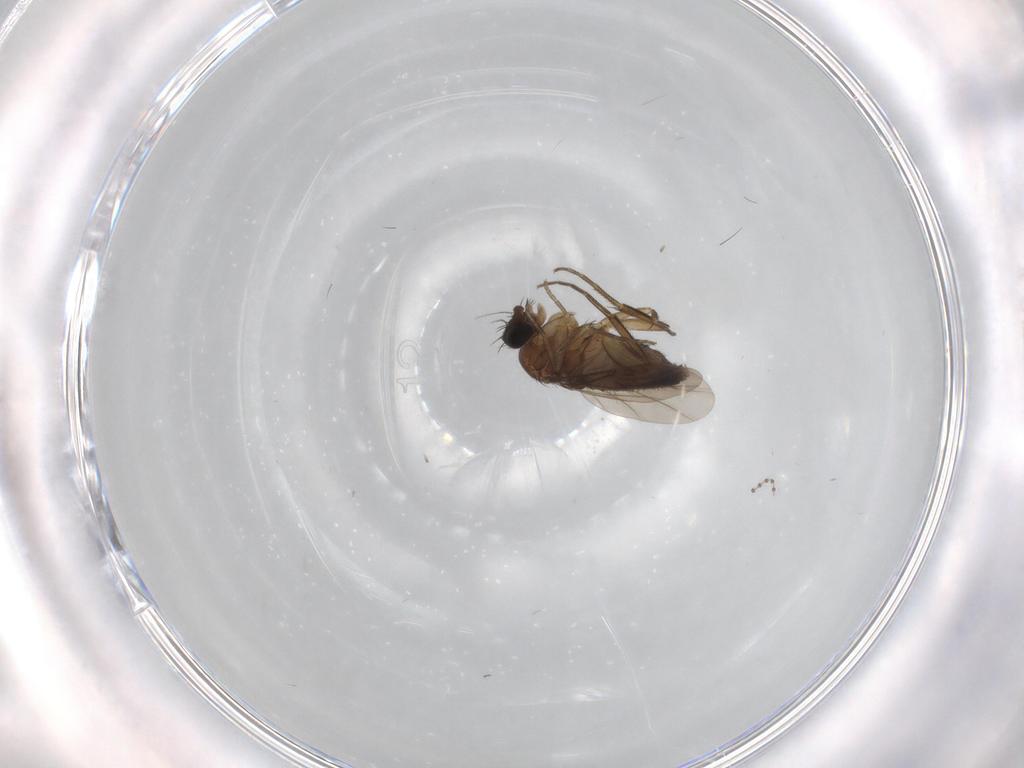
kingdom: Animalia
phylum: Arthropoda
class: Insecta
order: Diptera
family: Phoridae
